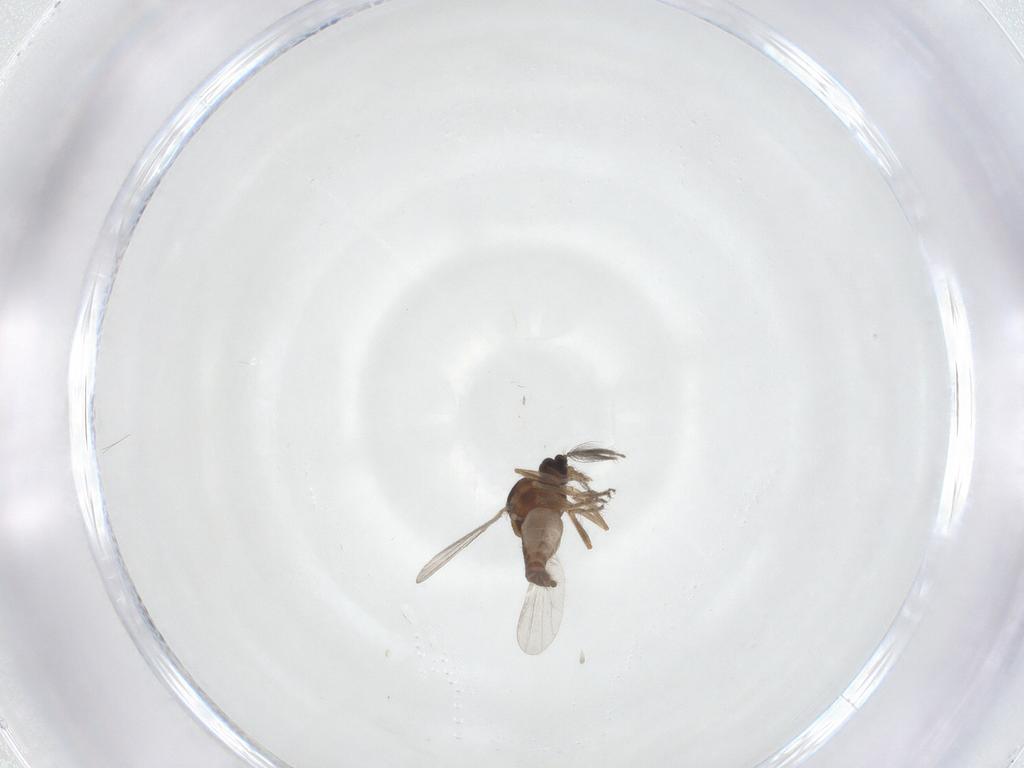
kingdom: Animalia
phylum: Arthropoda
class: Insecta
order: Diptera
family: Ceratopogonidae
